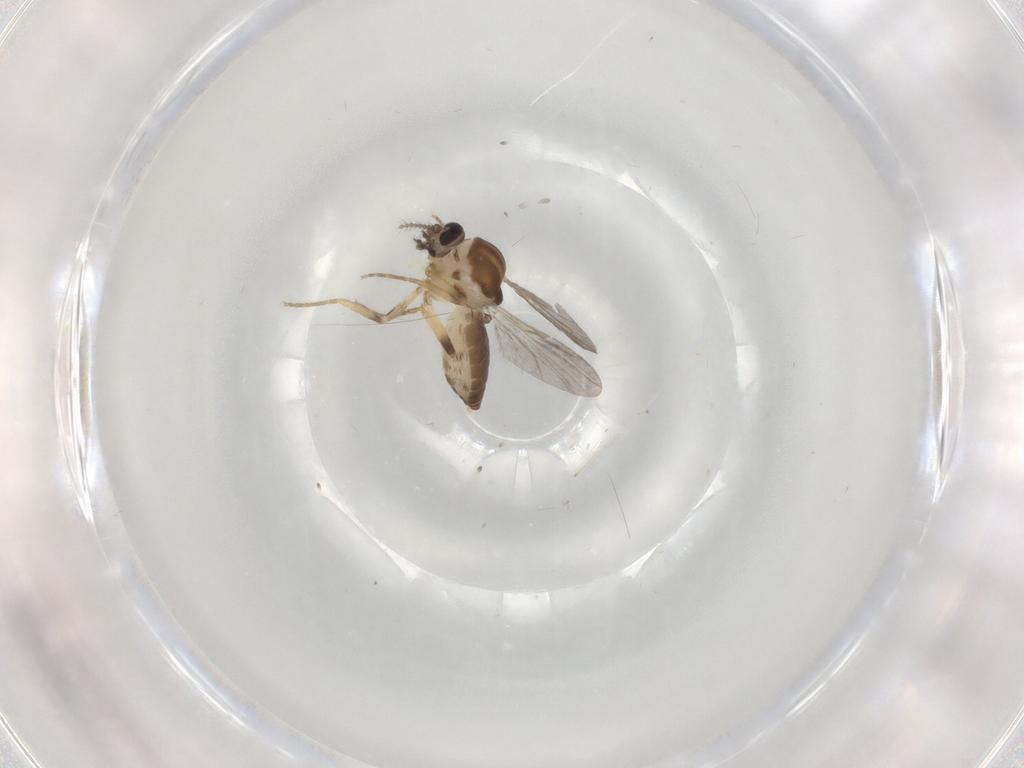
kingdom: Animalia
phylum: Arthropoda
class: Insecta
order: Diptera
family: Ceratopogonidae
